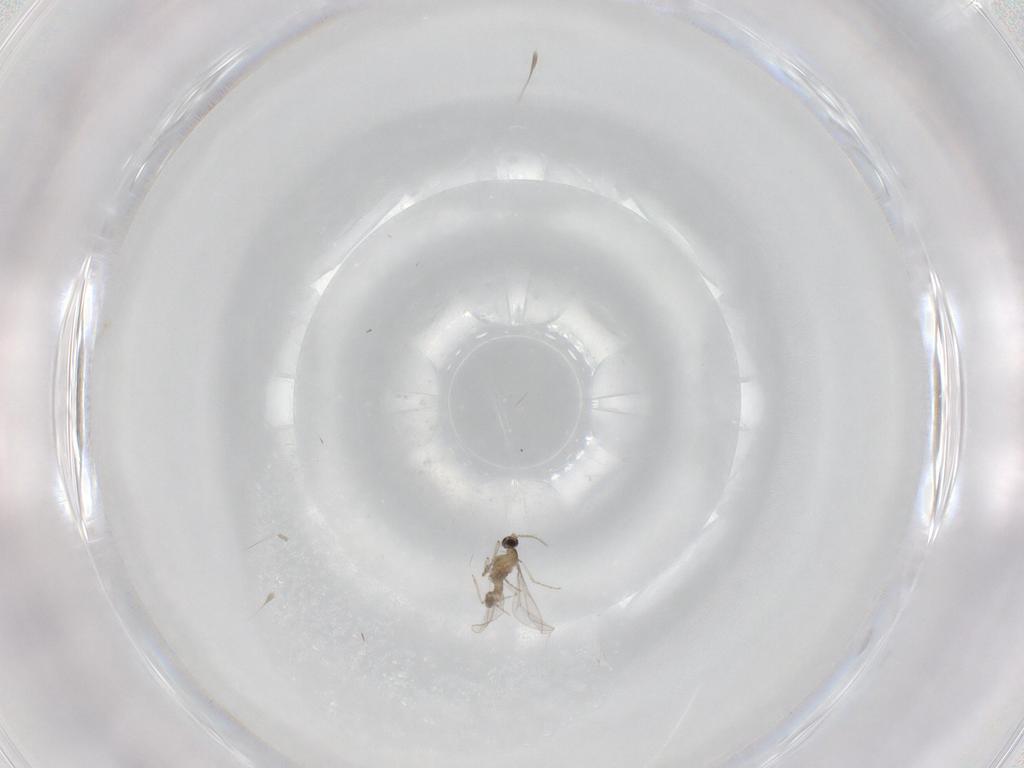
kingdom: Animalia
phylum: Arthropoda
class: Insecta
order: Diptera
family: Cecidomyiidae
